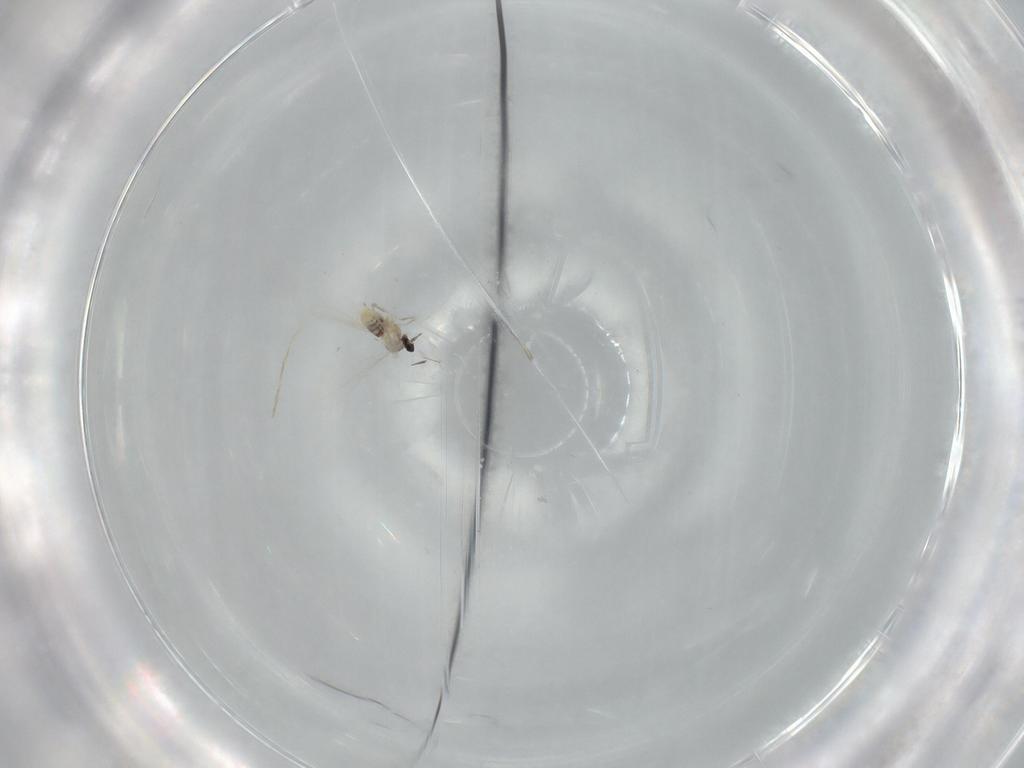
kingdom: Animalia
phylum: Arthropoda
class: Insecta
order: Diptera
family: Cecidomyiidae
